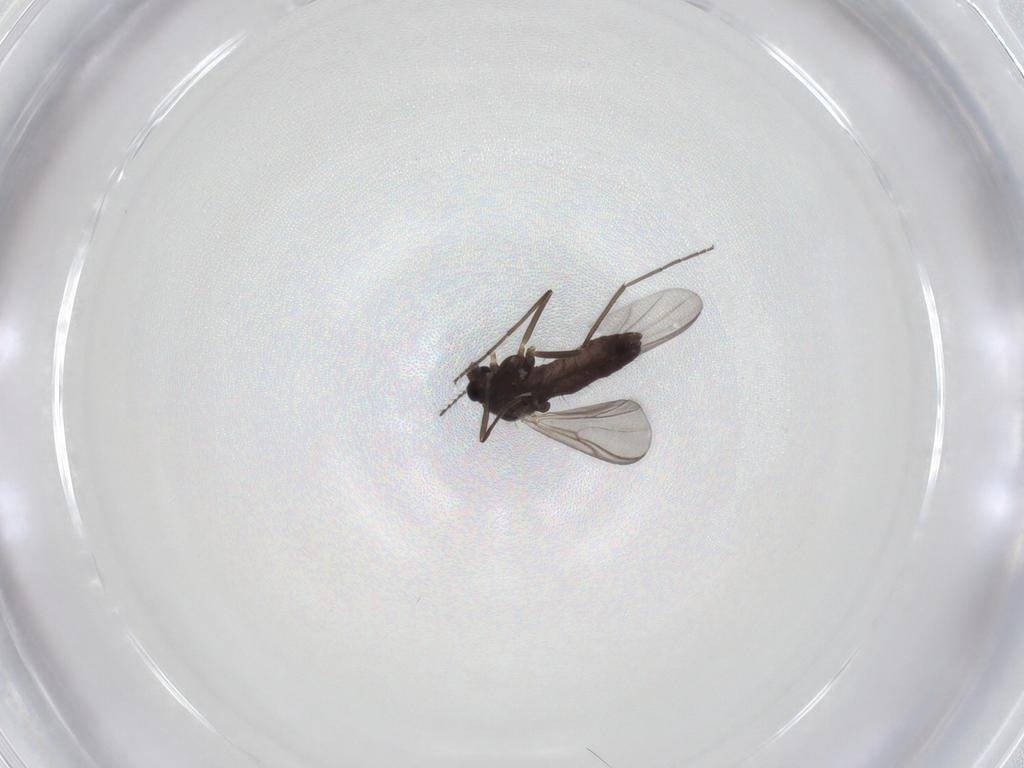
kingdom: Animalia
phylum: Arthropoda
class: Insecta
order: Diptera
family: Chironomidae
